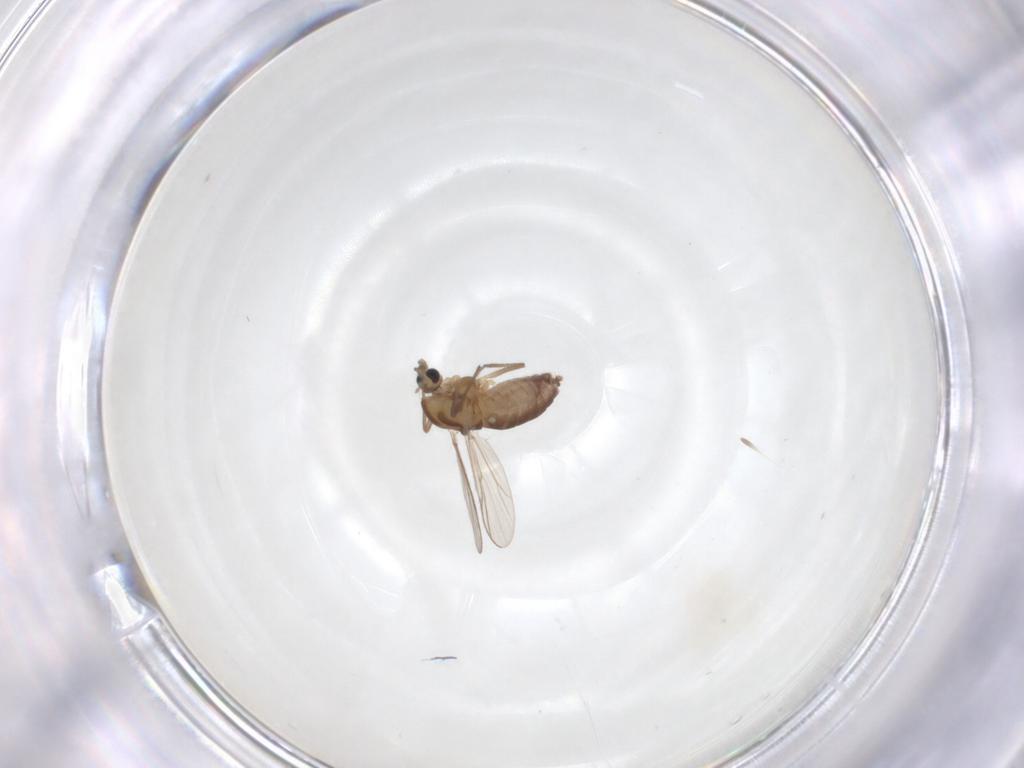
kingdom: Animalia
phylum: Arthropoda
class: Insecta
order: Diptera
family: Chironomidae
